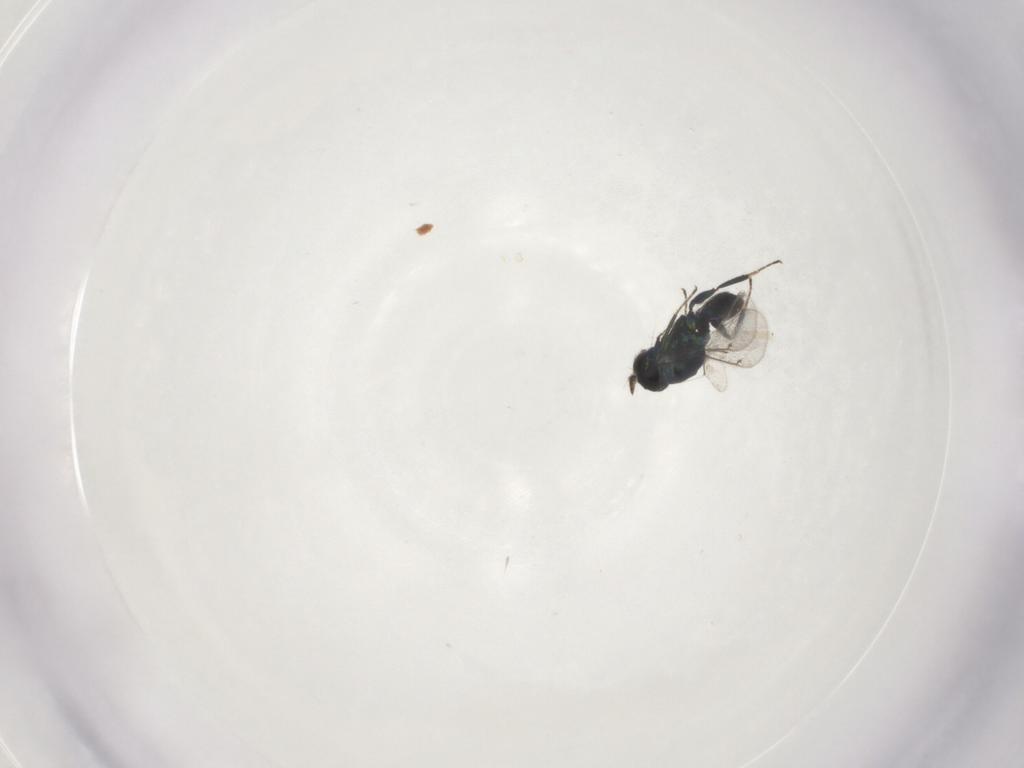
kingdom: Animalia
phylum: Arthropoda
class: Insecta
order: Hymenoptera
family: Eulophidae
